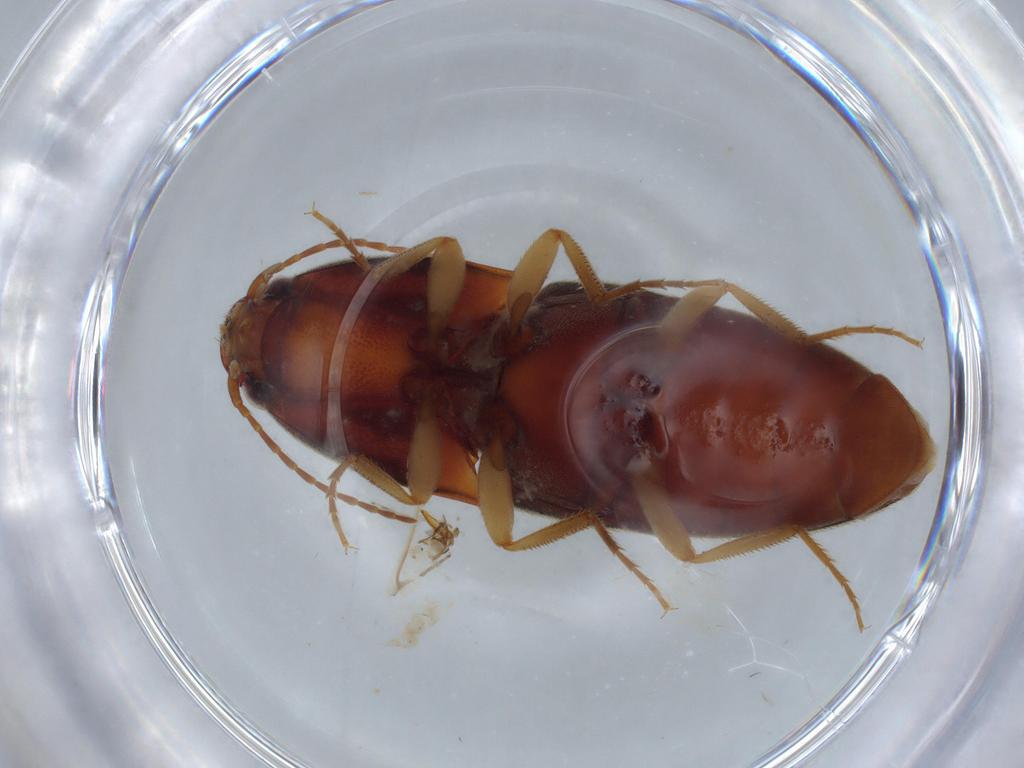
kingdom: Animalia
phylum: Arthropoda
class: Insecta
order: Coleoptera
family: Elateridae
